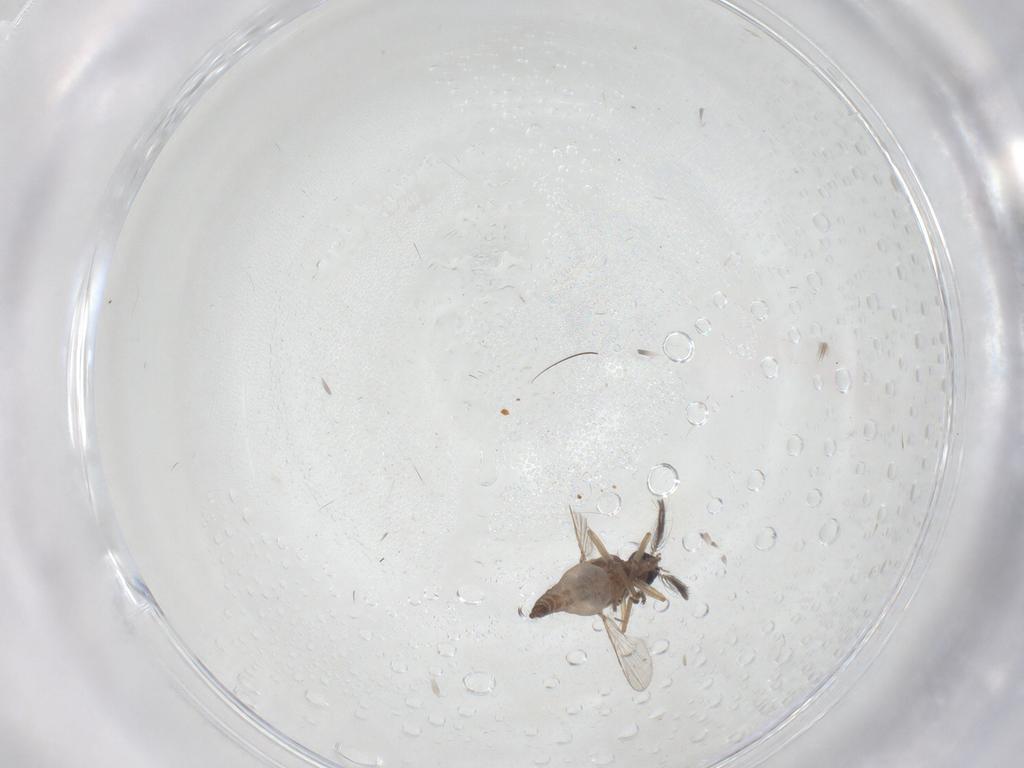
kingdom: Animalia
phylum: Arthropoda
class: Insecta
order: Diptera
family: Ceratopogonidae
